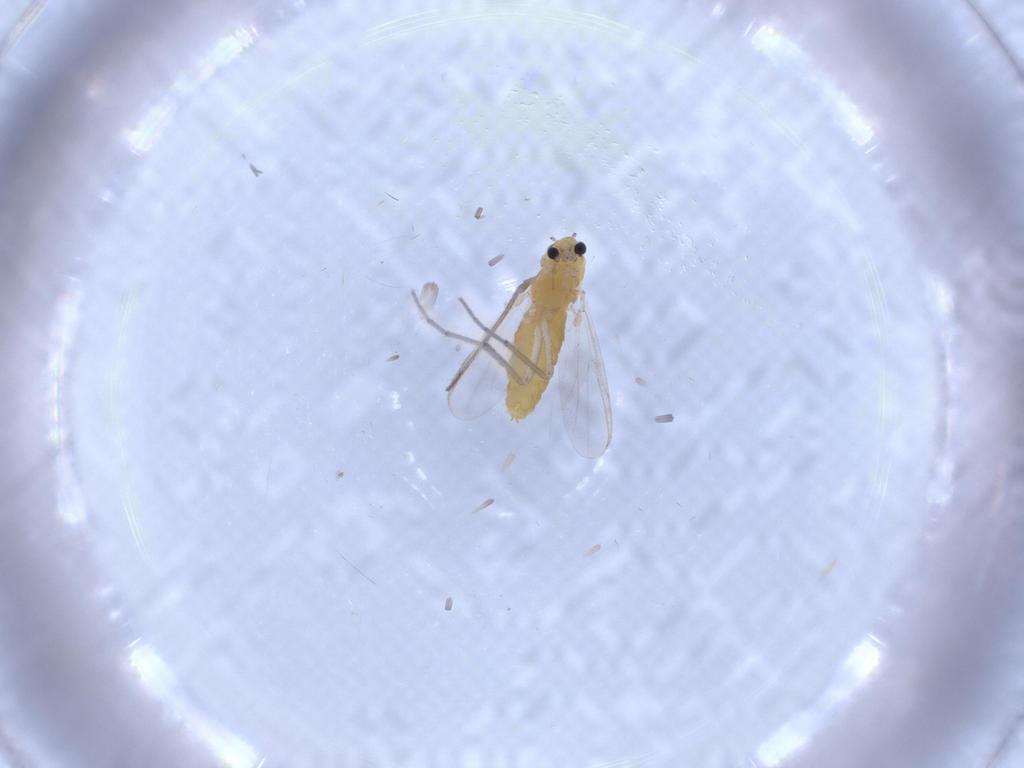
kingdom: Animalia
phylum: Arthropoda
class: Insecta
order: Diptera
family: Chironomidae
